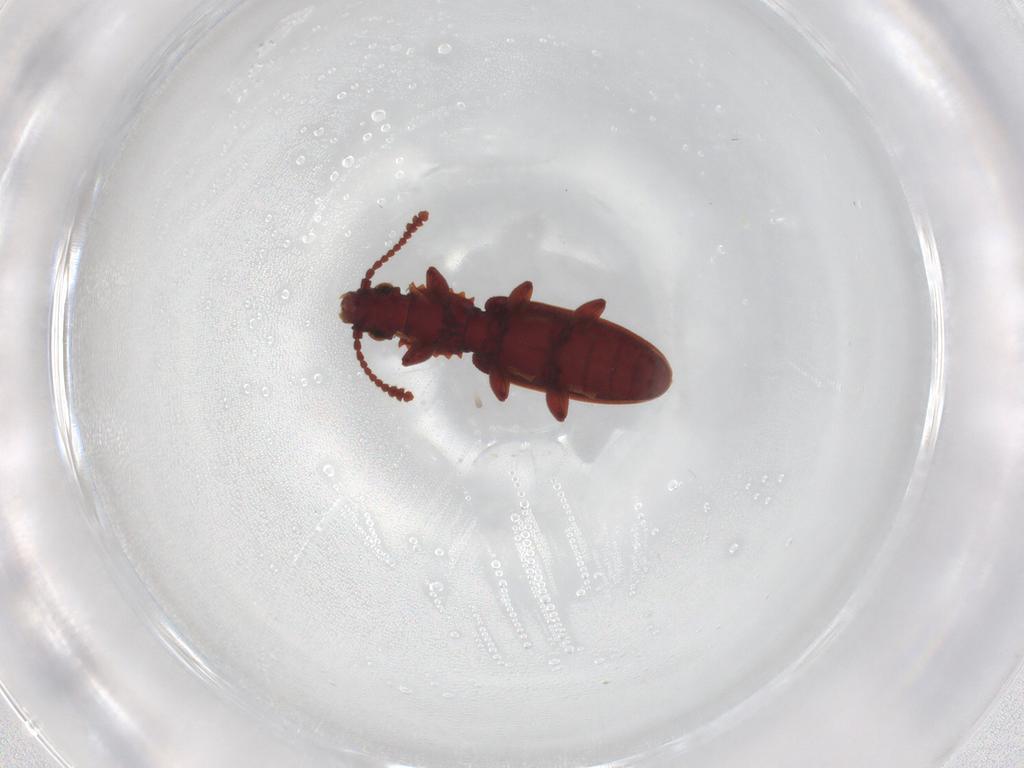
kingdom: Animalia
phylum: Arthropoda
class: Insecta
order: Coleoptera
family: Silvanidae
